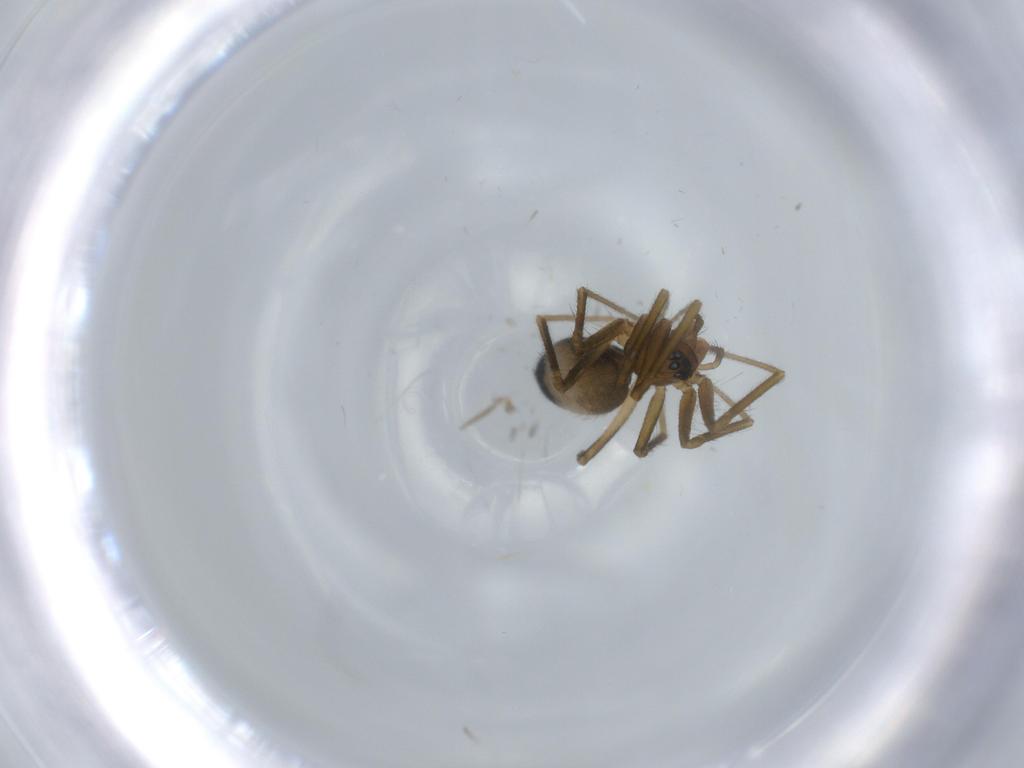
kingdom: Animalia
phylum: Arthropoda
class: Arachnida
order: Araneae
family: Linyphiidae
